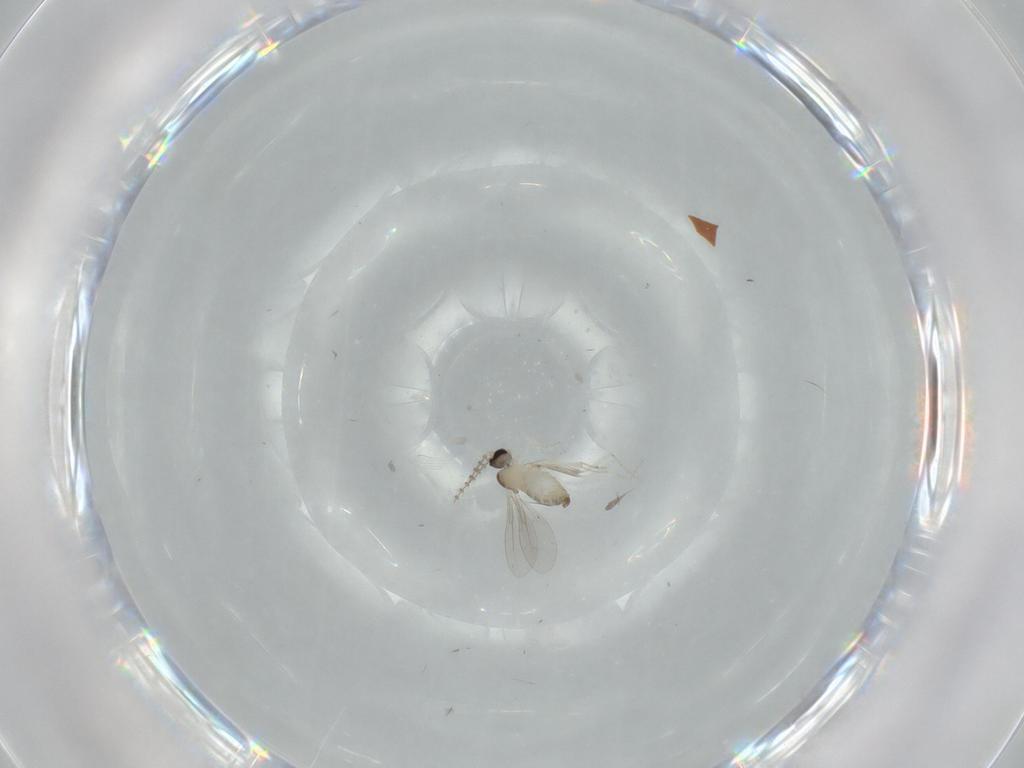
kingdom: Animalia
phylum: Arthropoda
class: Insecta
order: Diptera
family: Chironomidae
